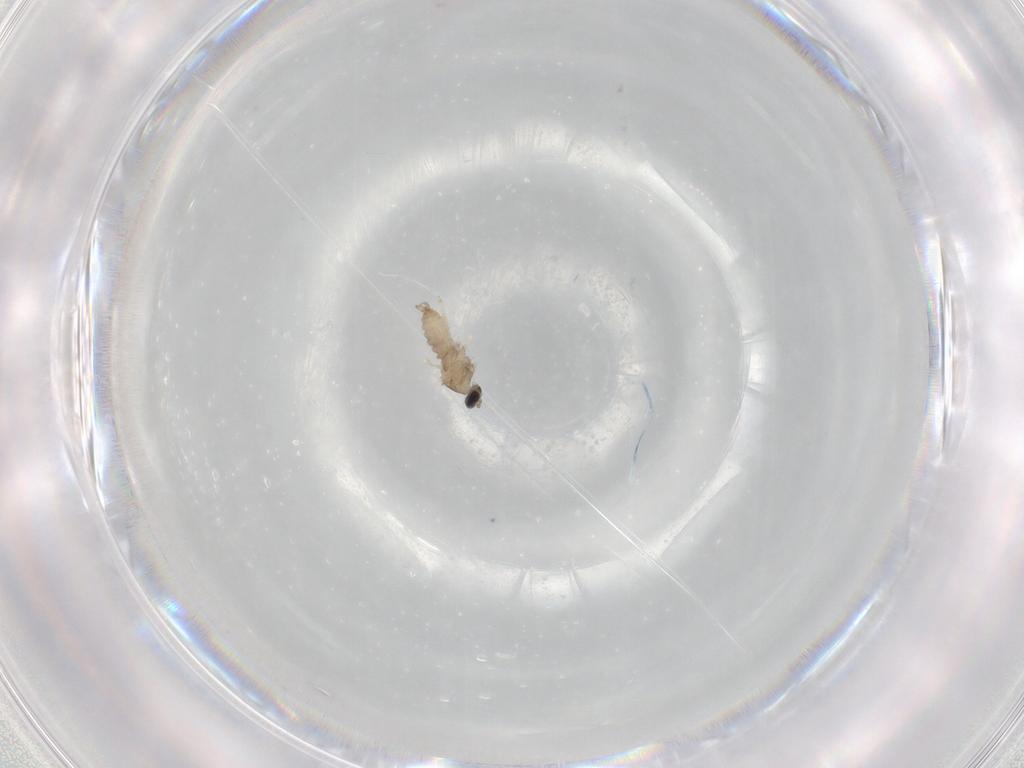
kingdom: Animalia
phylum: Arthropoda
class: Insecta
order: Diptera
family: Cecidomyiidae
